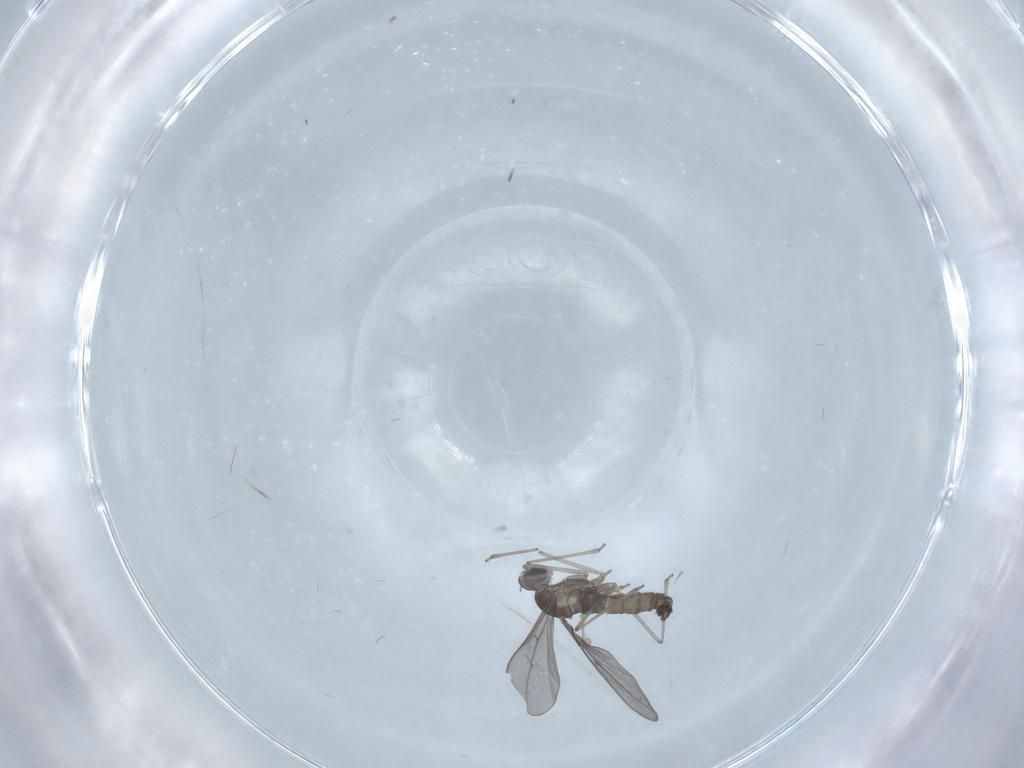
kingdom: Animalia
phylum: Arthropoda
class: Insecta
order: Diptera
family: Cecidomyiidae
